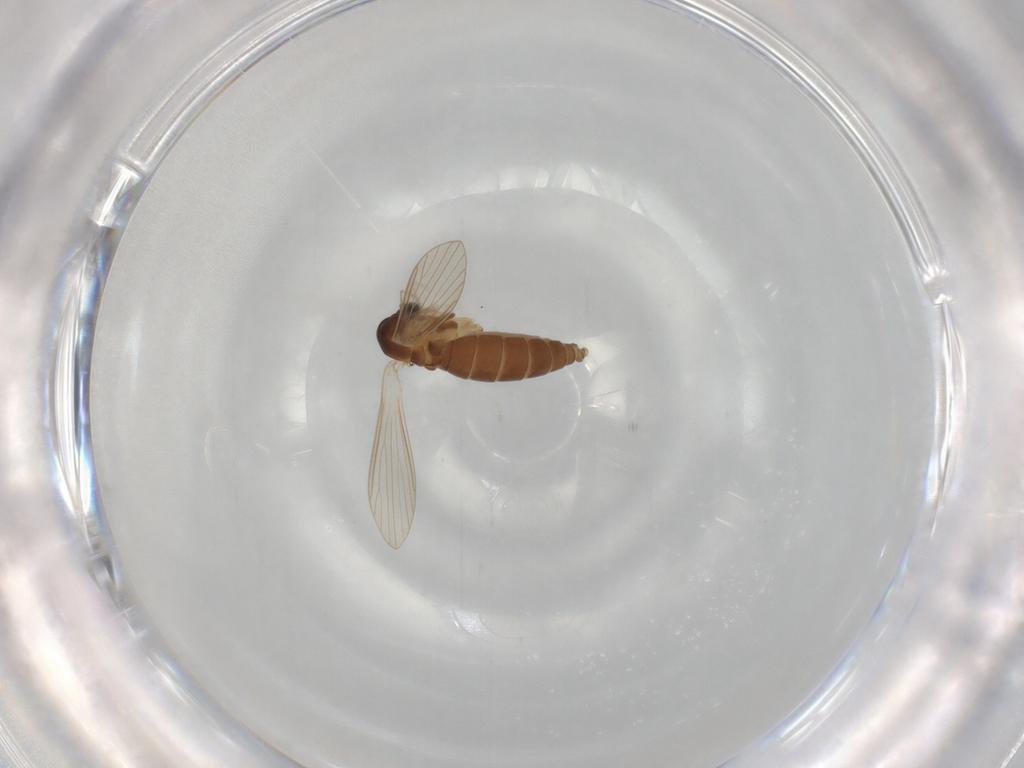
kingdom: Animalia
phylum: Arthropoda
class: Insecta
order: Diptera
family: Psychodidae
